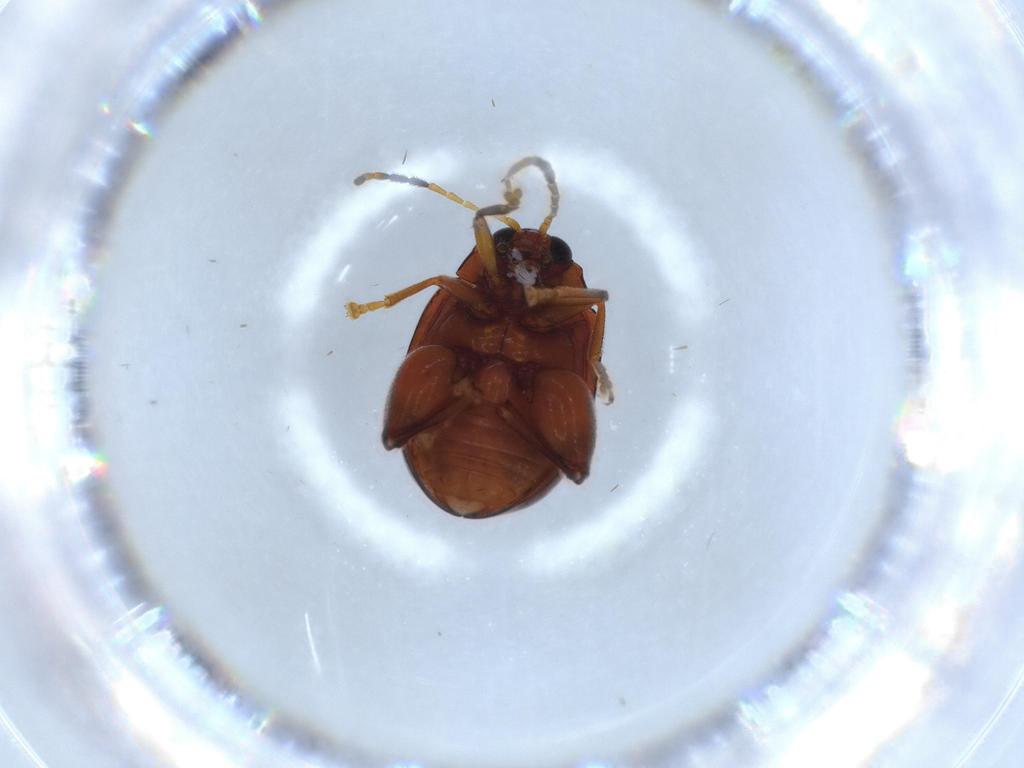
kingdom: Animalia
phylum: Arthropoda
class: Insecta
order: Coleoptera
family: Chrysomelidae
